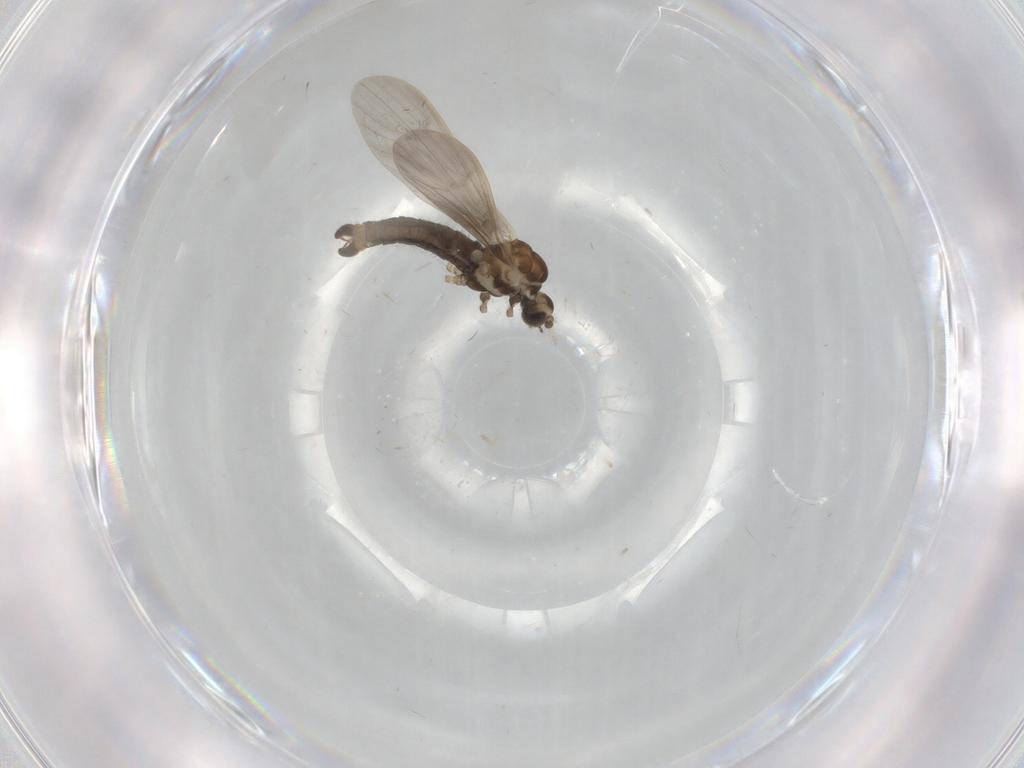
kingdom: Animalia
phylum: Arthropoda
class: Insecta
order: Diptera
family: Limoniidae
